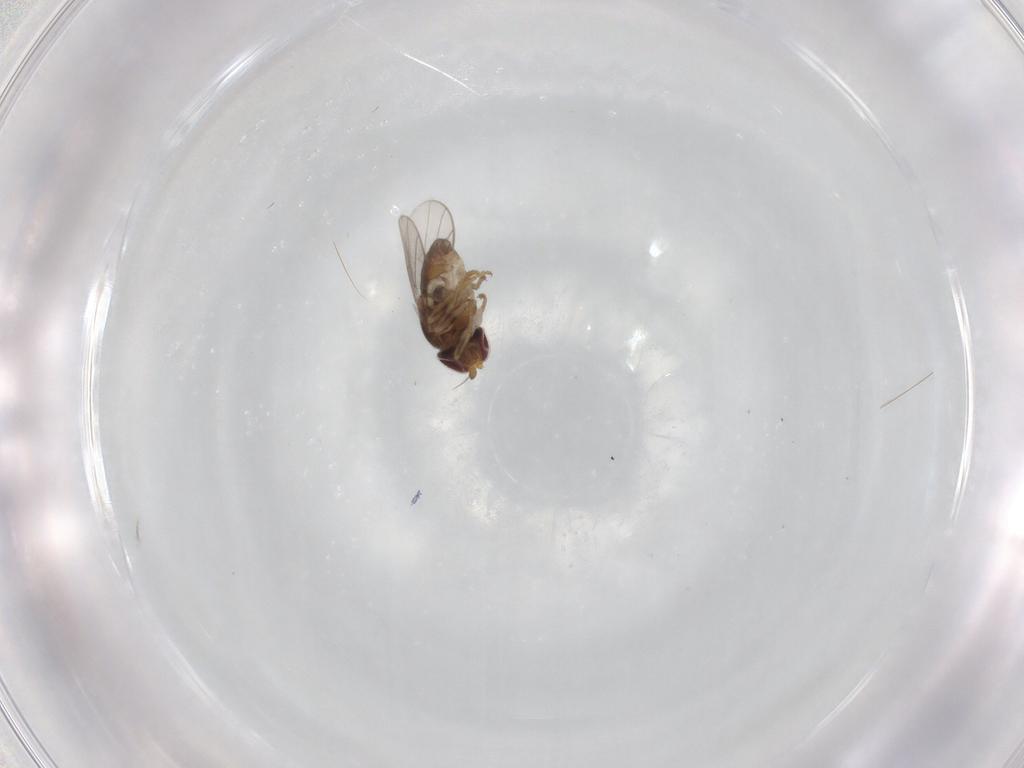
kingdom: Animalia
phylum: Arthropoda
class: Insecta
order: Diptera
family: Chloropidae
